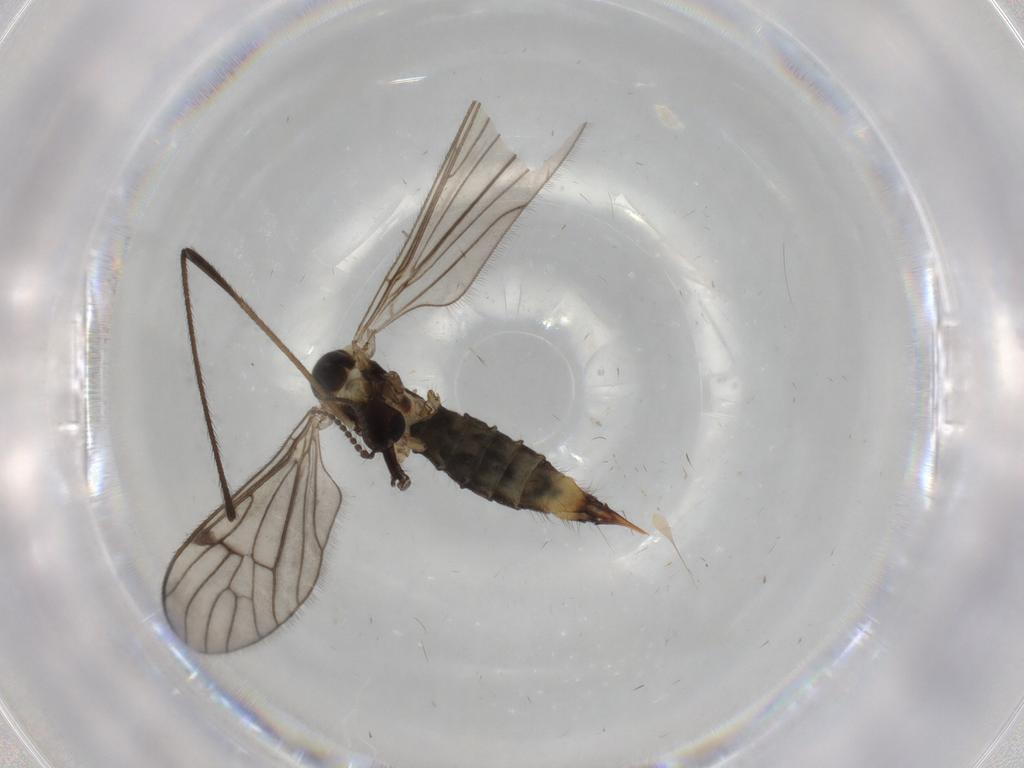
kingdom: Animalia
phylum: Arthropoda
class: Insecta
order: Diptera
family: Limoniidae
